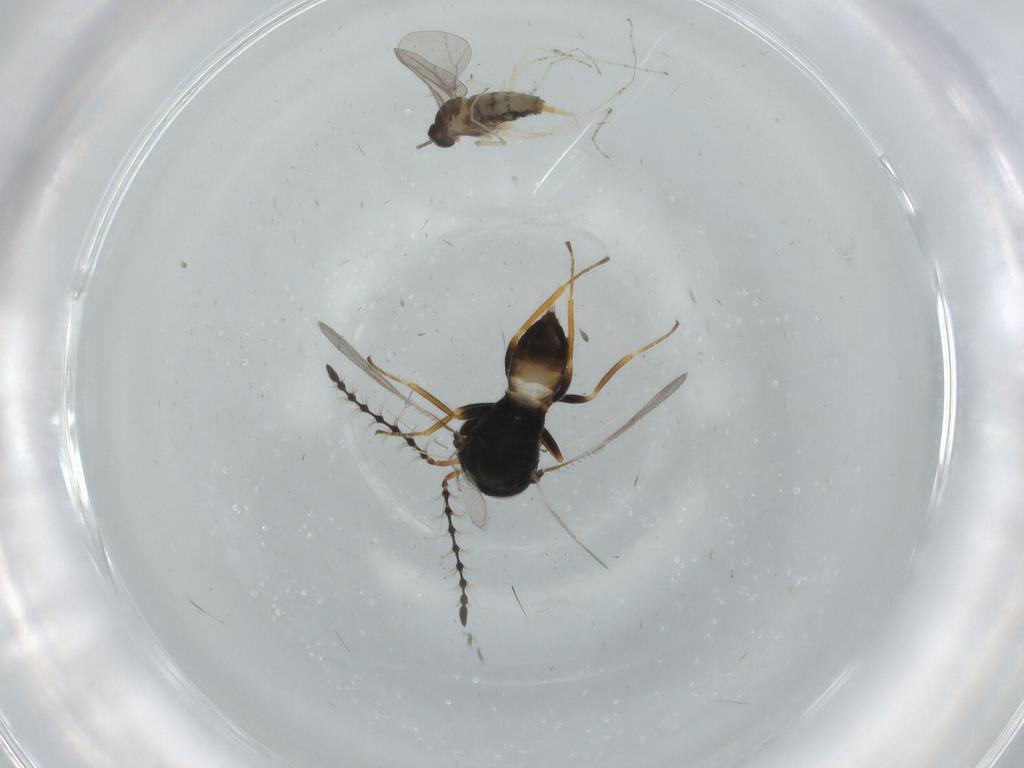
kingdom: Animalia
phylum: Arthropoda
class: Insecta
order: Diptera
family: Cecidomyiidae
